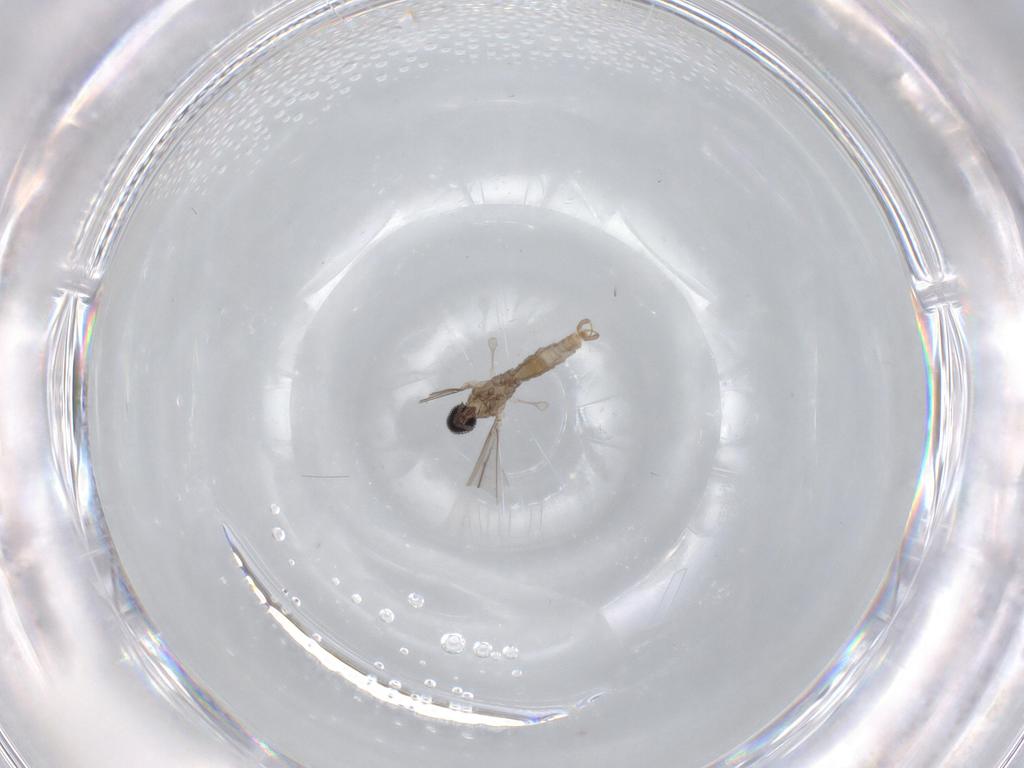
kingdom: Animalia
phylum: Arthropoda
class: Insecta
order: Diptera
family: Cecidomyiidae
